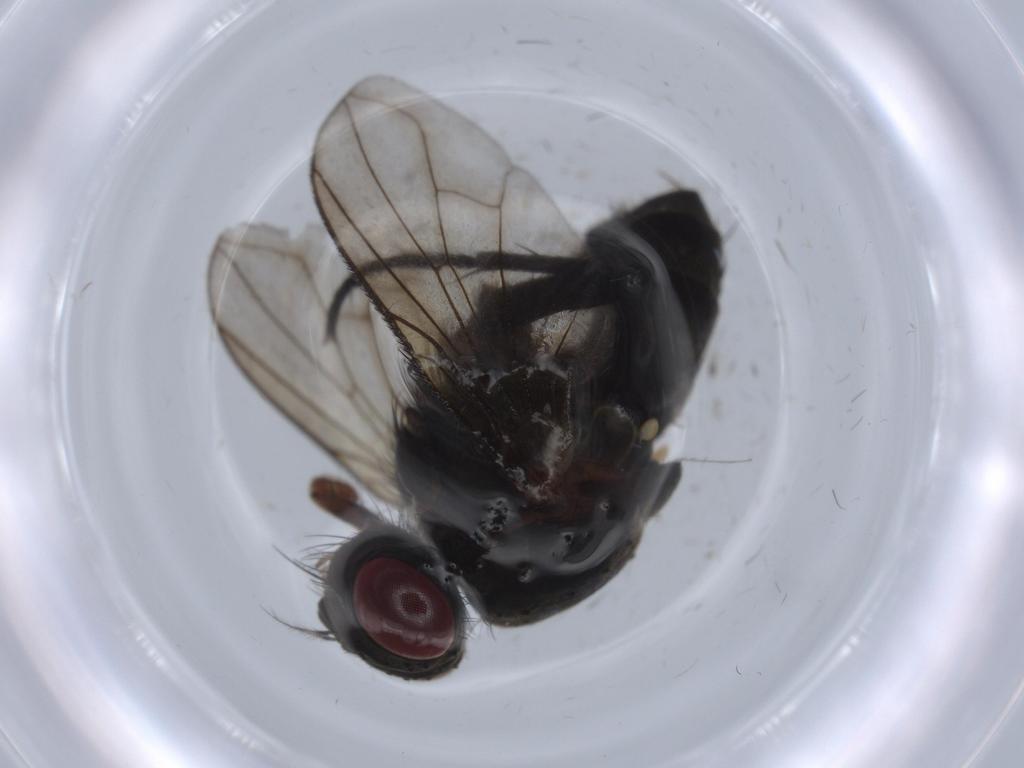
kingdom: Animalia
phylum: Arthropoda
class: Insecta
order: Diptera
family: Calliphoridae
